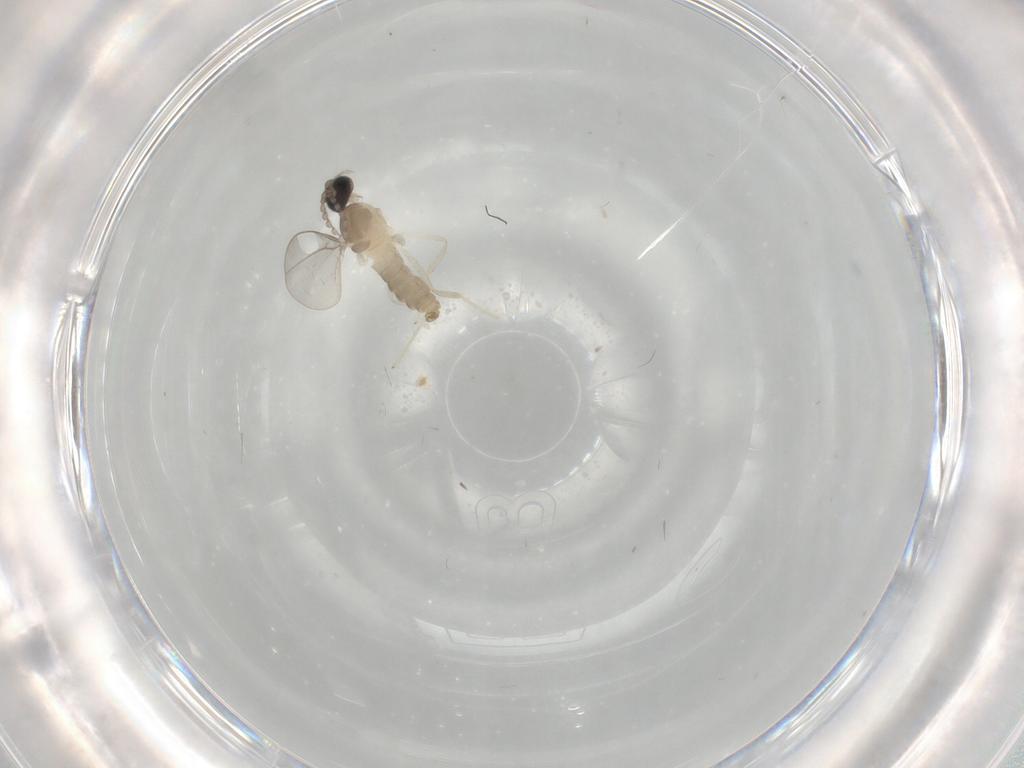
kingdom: Animalia
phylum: Arthropoda
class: Insecta
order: Diptera
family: Cecidomyiidae
